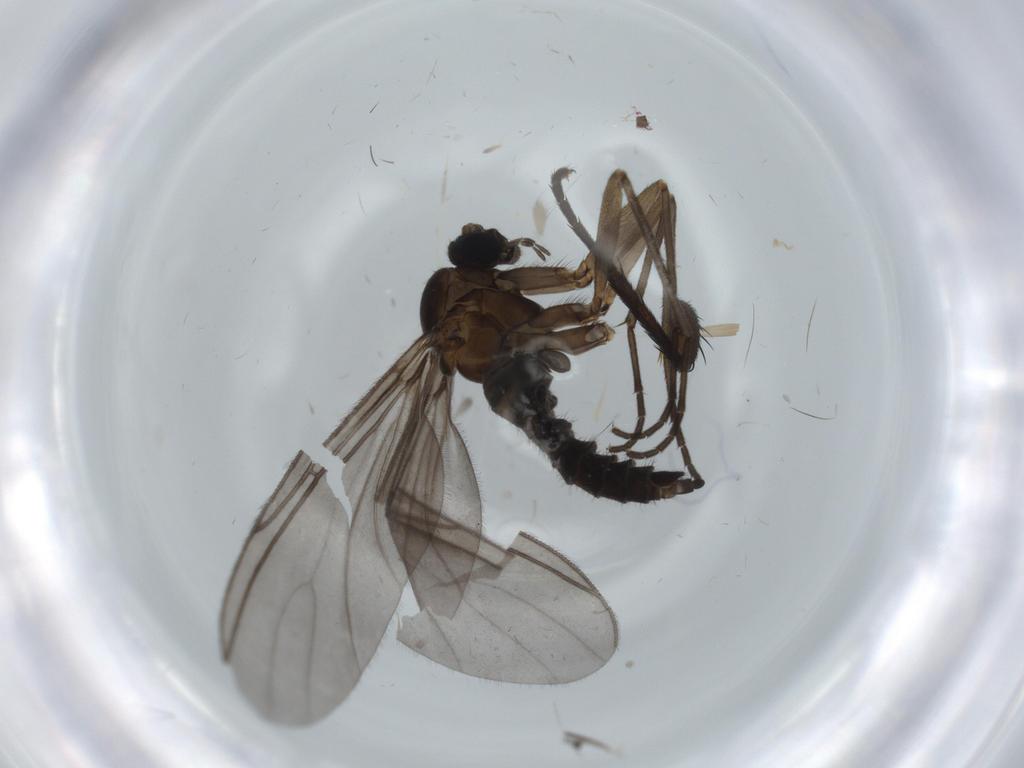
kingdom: Animalia
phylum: Arthropoda
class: Insecta
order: Diptera
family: Sciaridae
